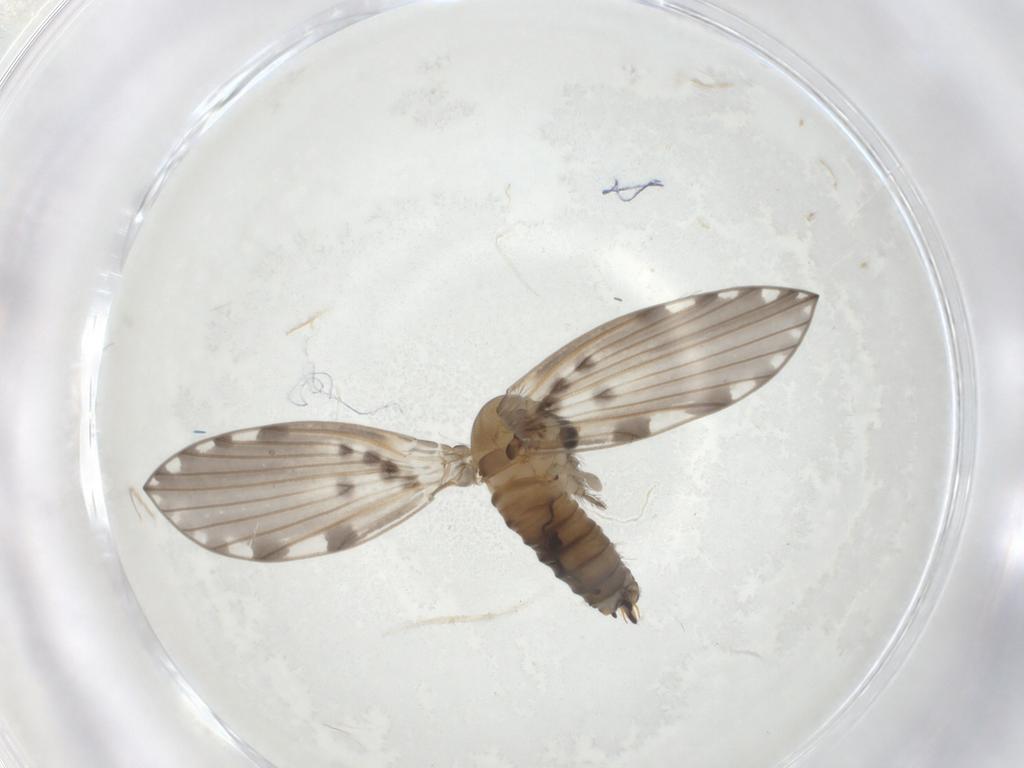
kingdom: Animalia
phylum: Arthropoda
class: Insecta
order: Diptera
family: Psychodidae
